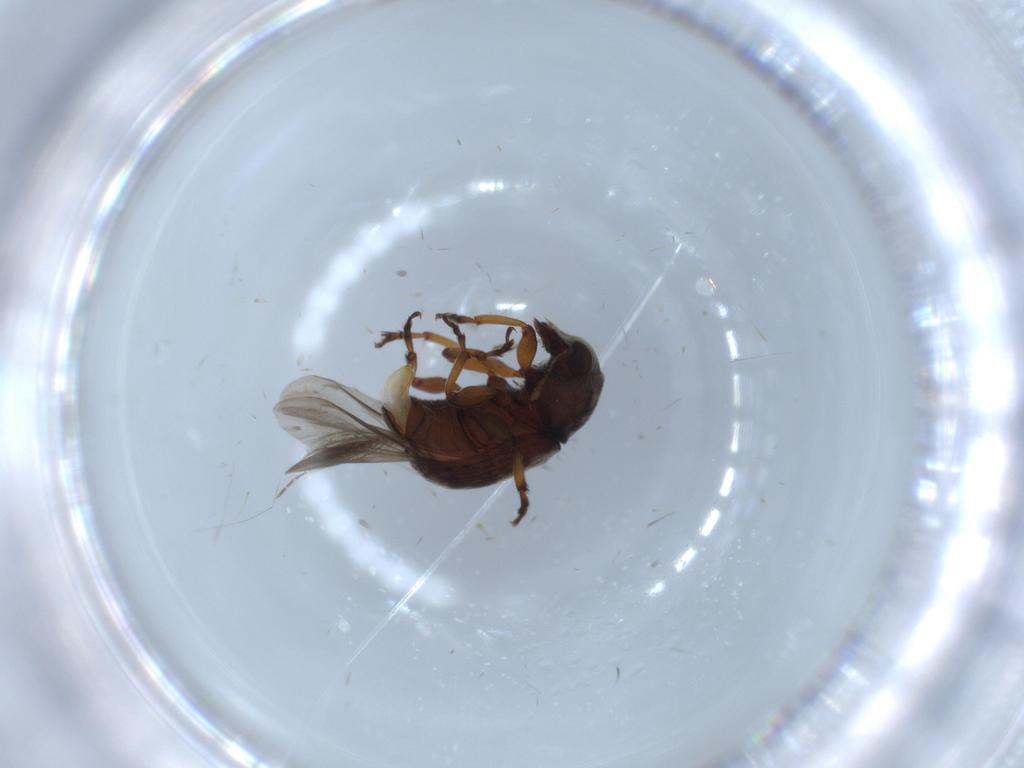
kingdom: Animalia
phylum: Arthropoda
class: Insecta
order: Coleoptera
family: Anthribidae
